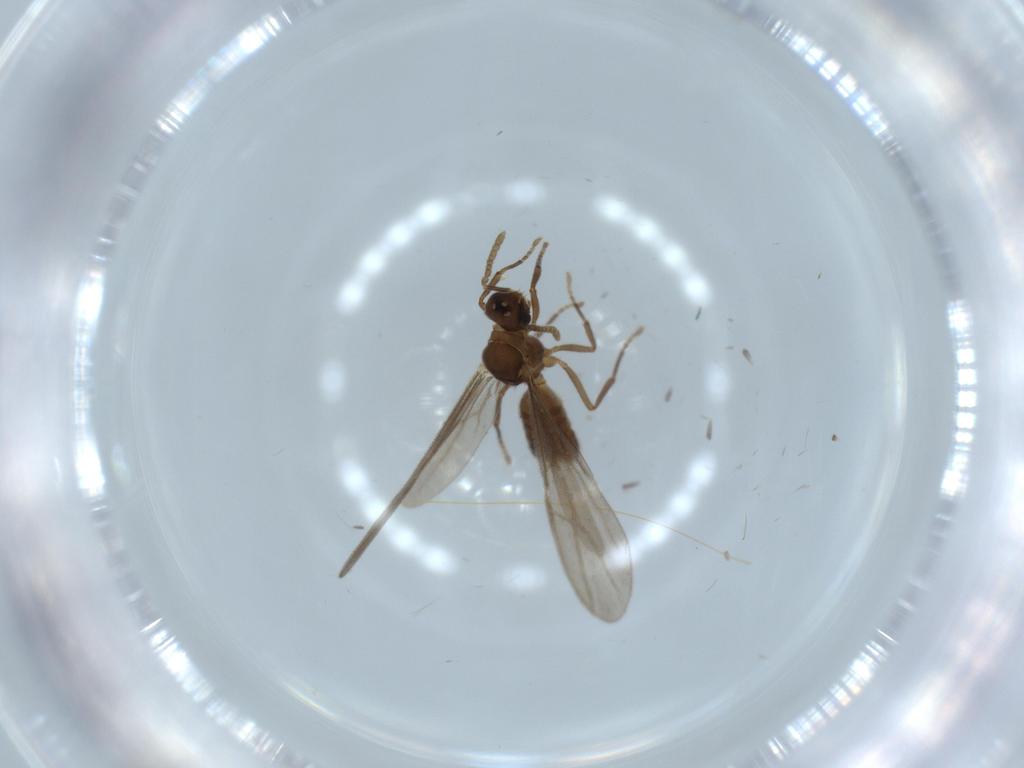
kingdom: Animalia
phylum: Arthropoda
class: Insecta
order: Hymenoptera
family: Formicidae
